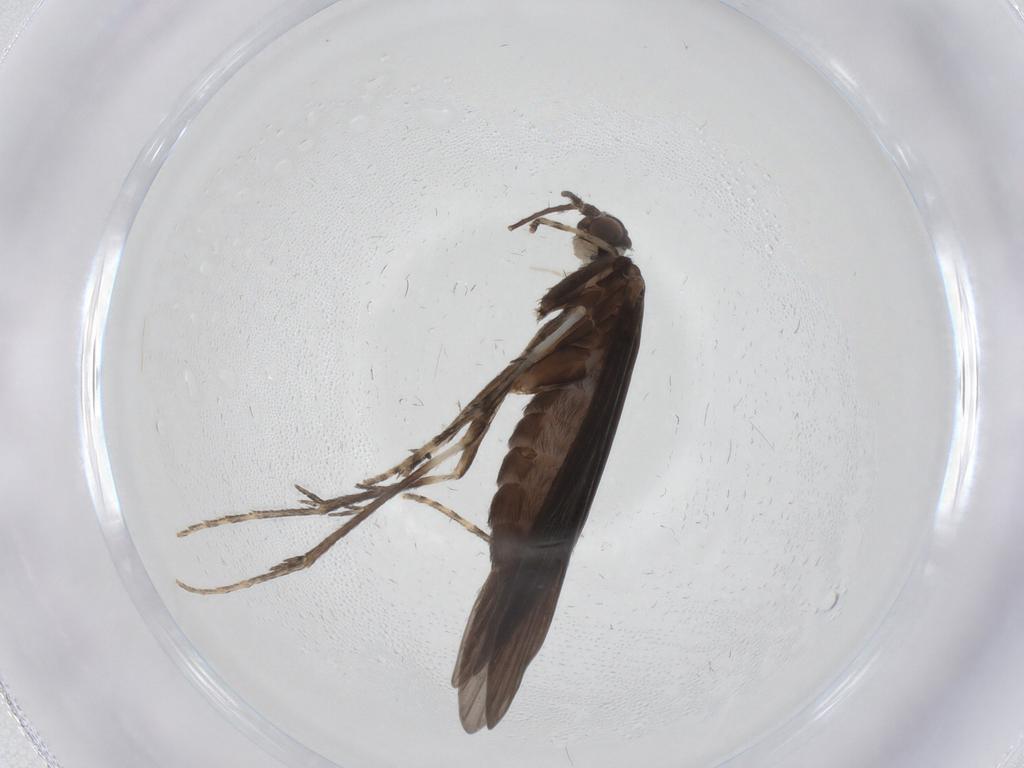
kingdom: Animalia
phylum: Arthropoda
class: Insecta
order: Trichoptera
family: Xiphocentronidae
